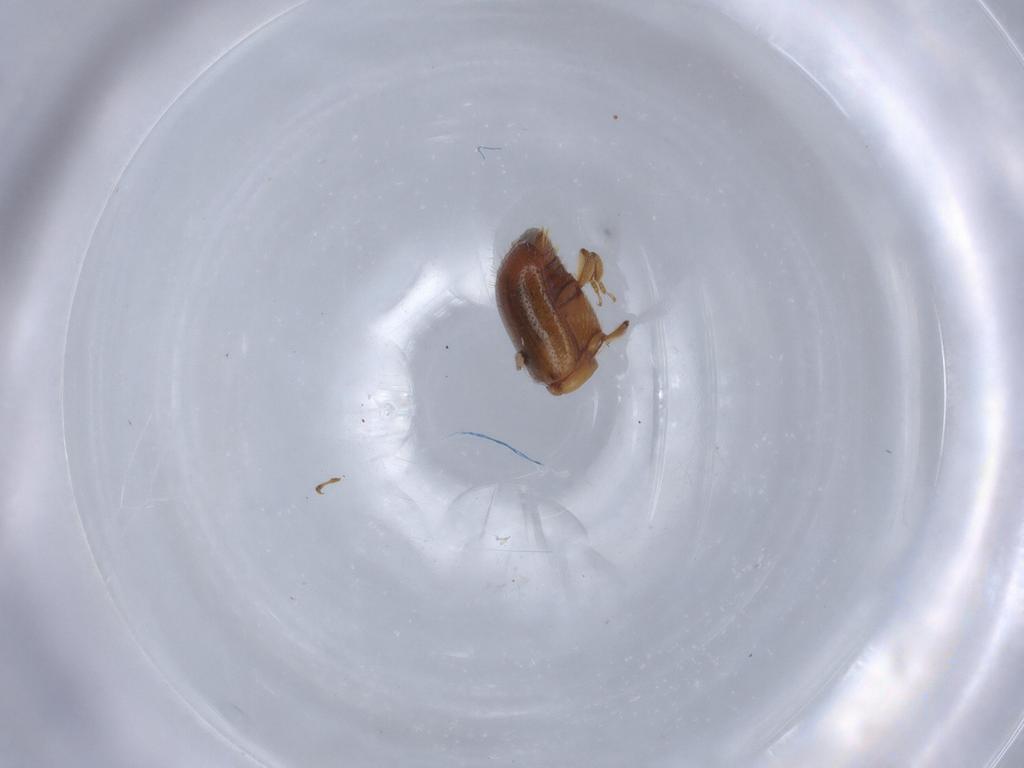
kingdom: Animalia
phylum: Arthropoda
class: Insecta
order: Coleoptera
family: Curculionidae
